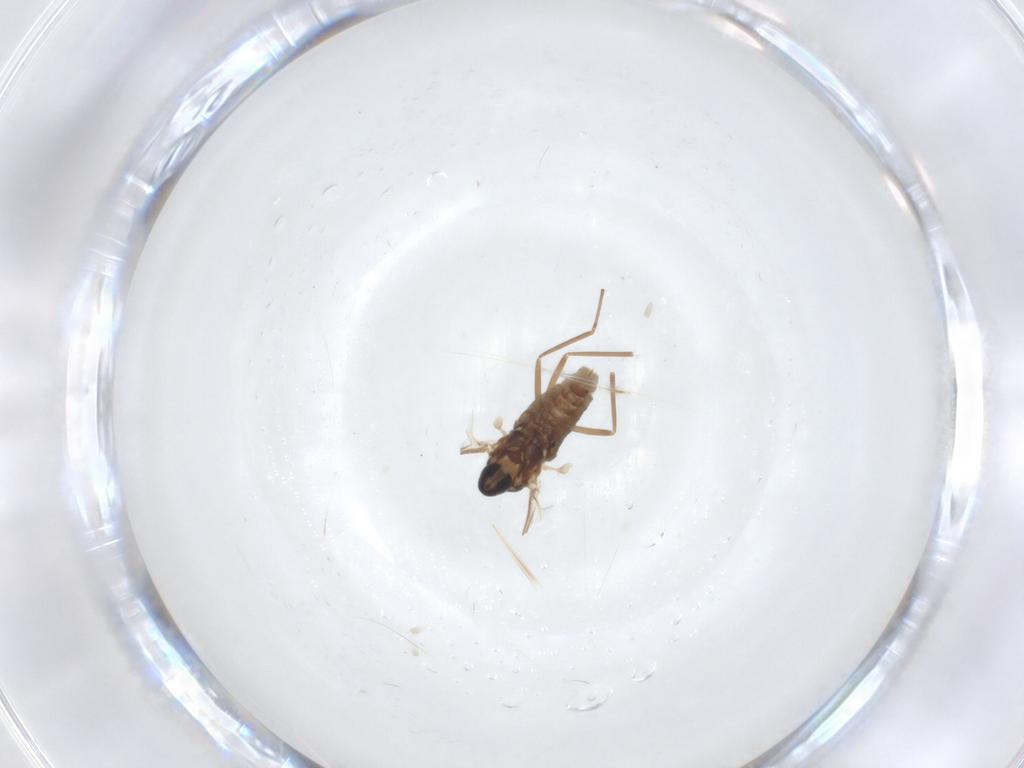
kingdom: Animalia
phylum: Arthropoda
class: Insecta
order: Diptera
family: Cecidomyiidae
